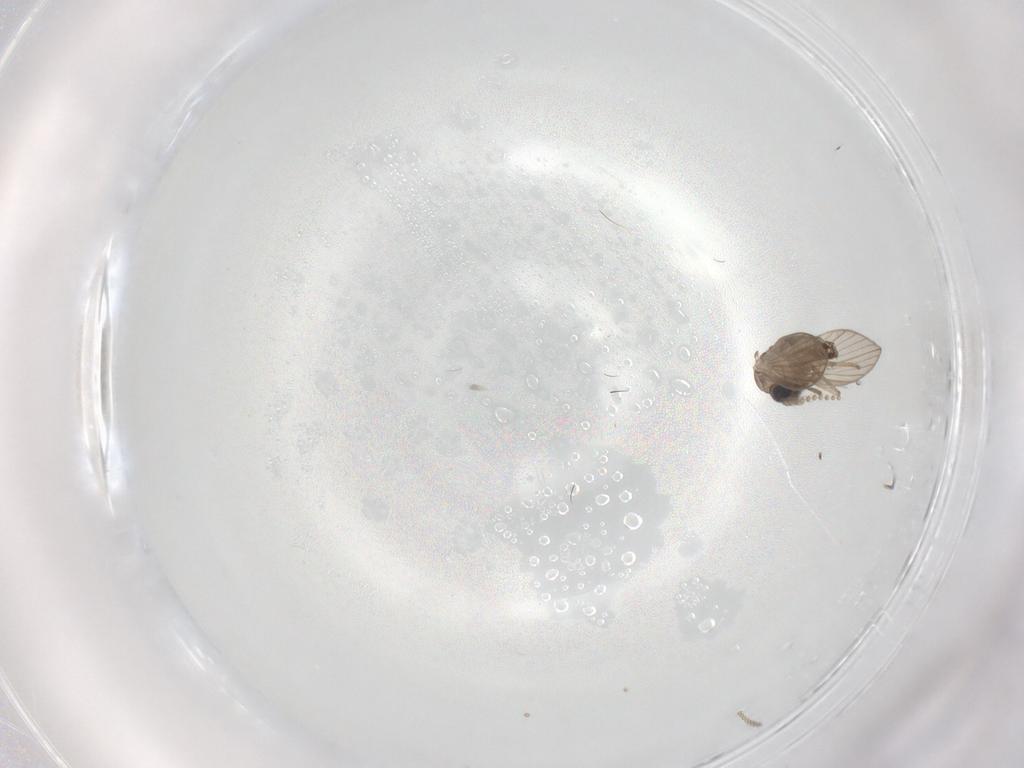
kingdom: Animalia
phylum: Arthropoda
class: Insecta
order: Diptera
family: Psychodidae
